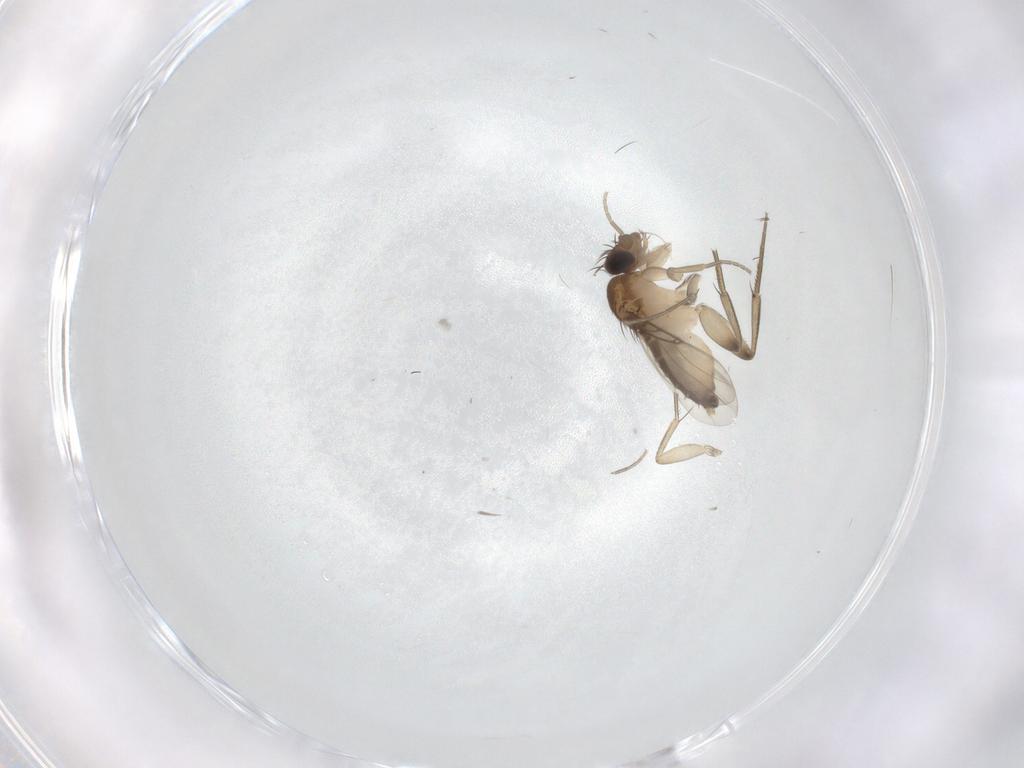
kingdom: Animalia
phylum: Arthropoda
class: Insecta
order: Diptera
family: Phoridae
